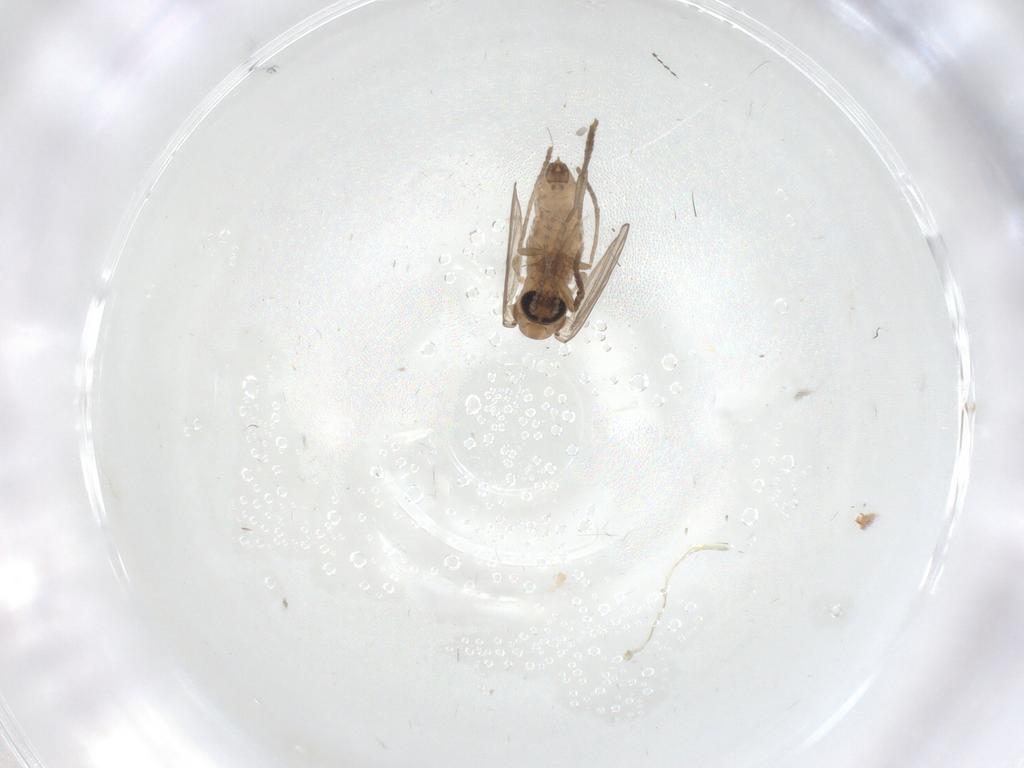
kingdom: Animalia
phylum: Arthropoda
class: Insecta
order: Diptera
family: Psychodidae
